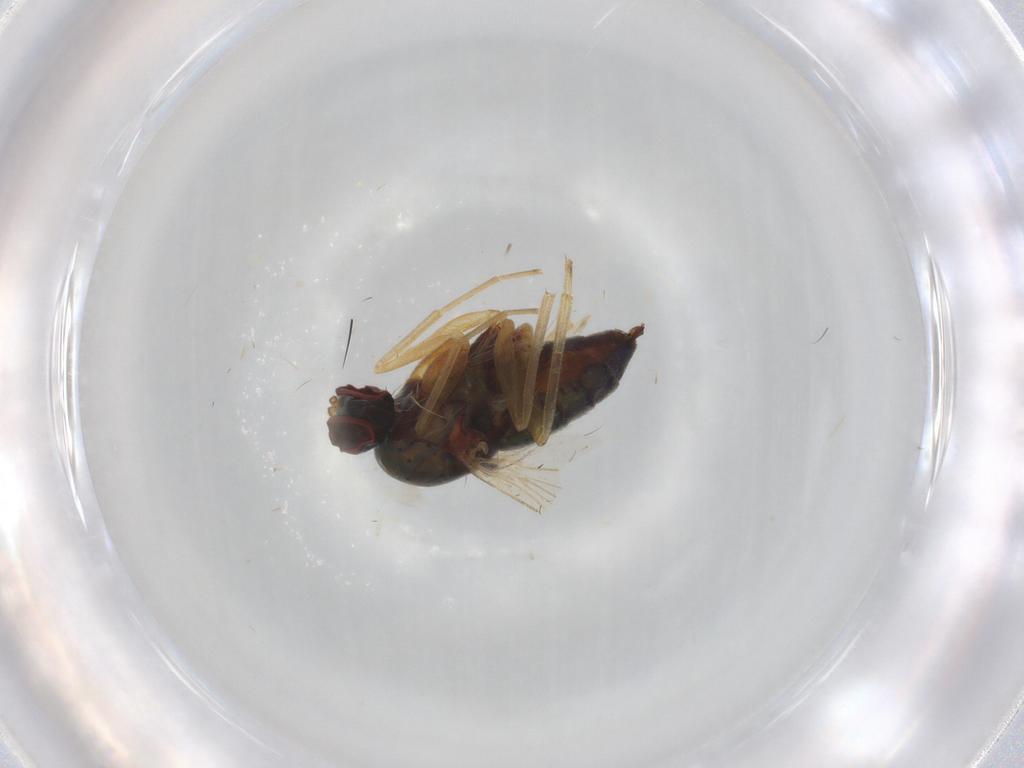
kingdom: Animalia
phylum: Arthropoda
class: Insecta
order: Diptera
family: Dolichopodidae
